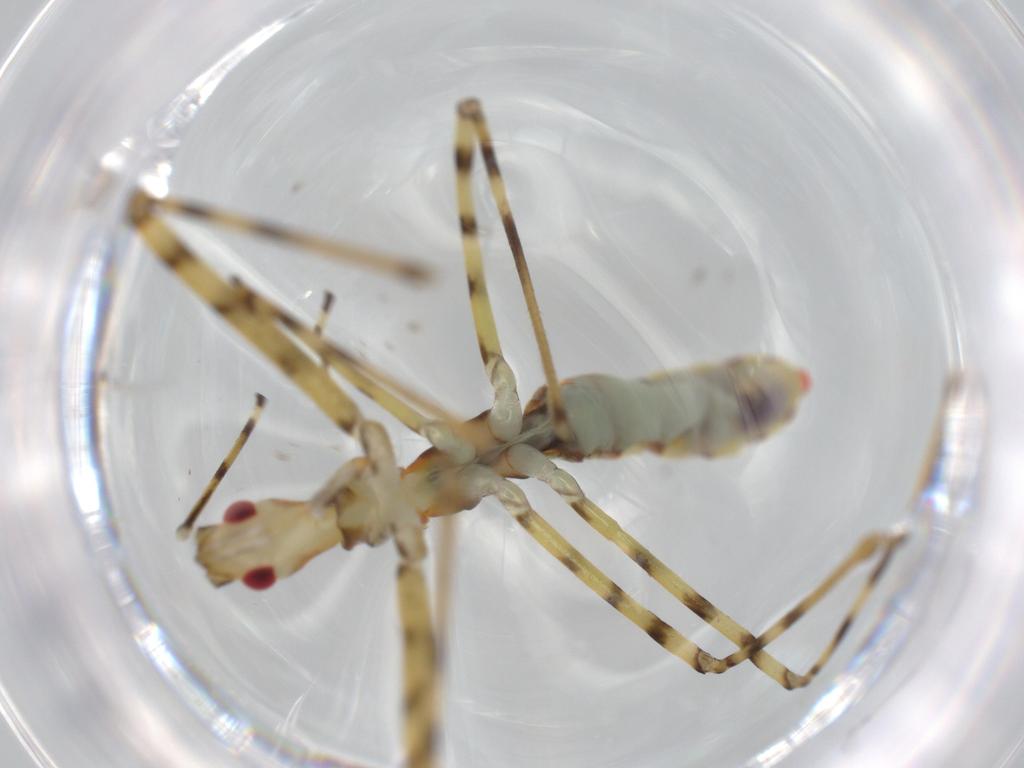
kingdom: Animalia
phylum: Arthropoda
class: Insecta
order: Hemiptera
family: Reduviidae
